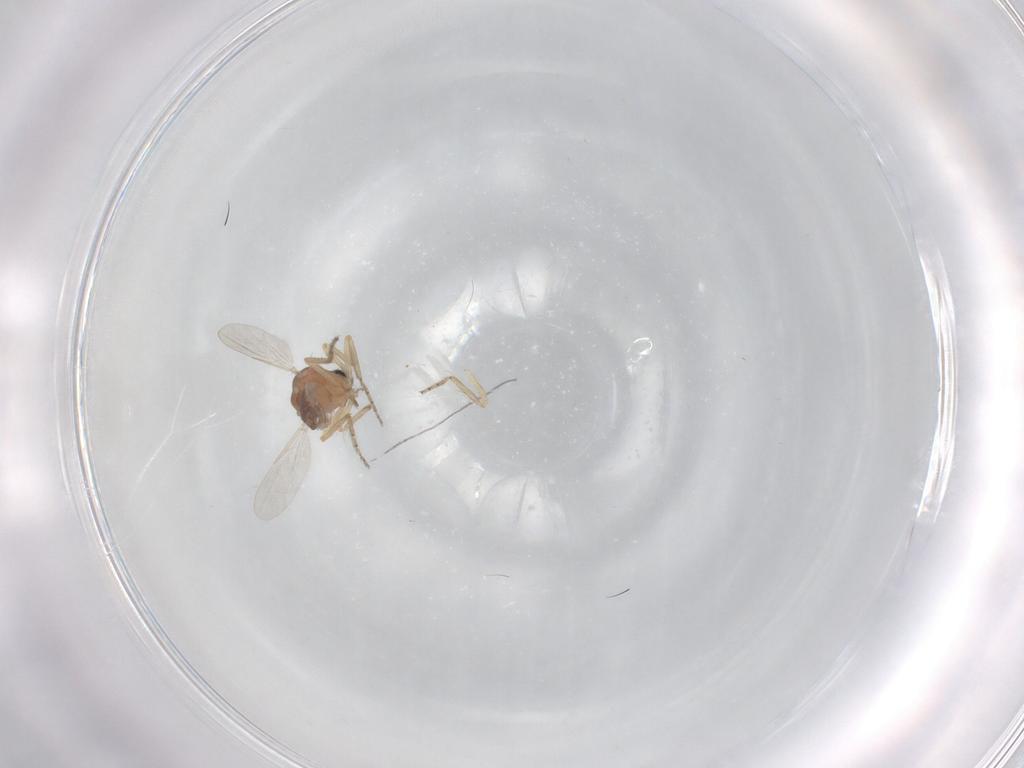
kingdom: Animalia
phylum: Arthropoda
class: Insecta
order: Diptera
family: Ceratopogonidae
